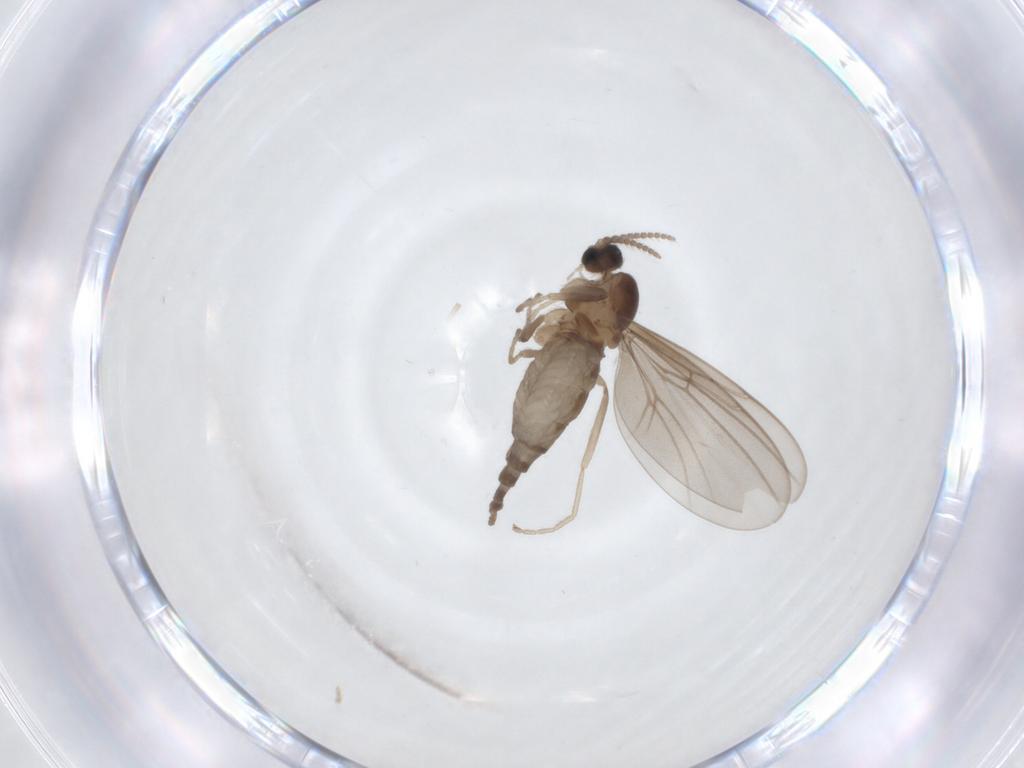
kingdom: Animalia
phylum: Arthropoda
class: Insecta
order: Diptera
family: Cecidomyiidae
